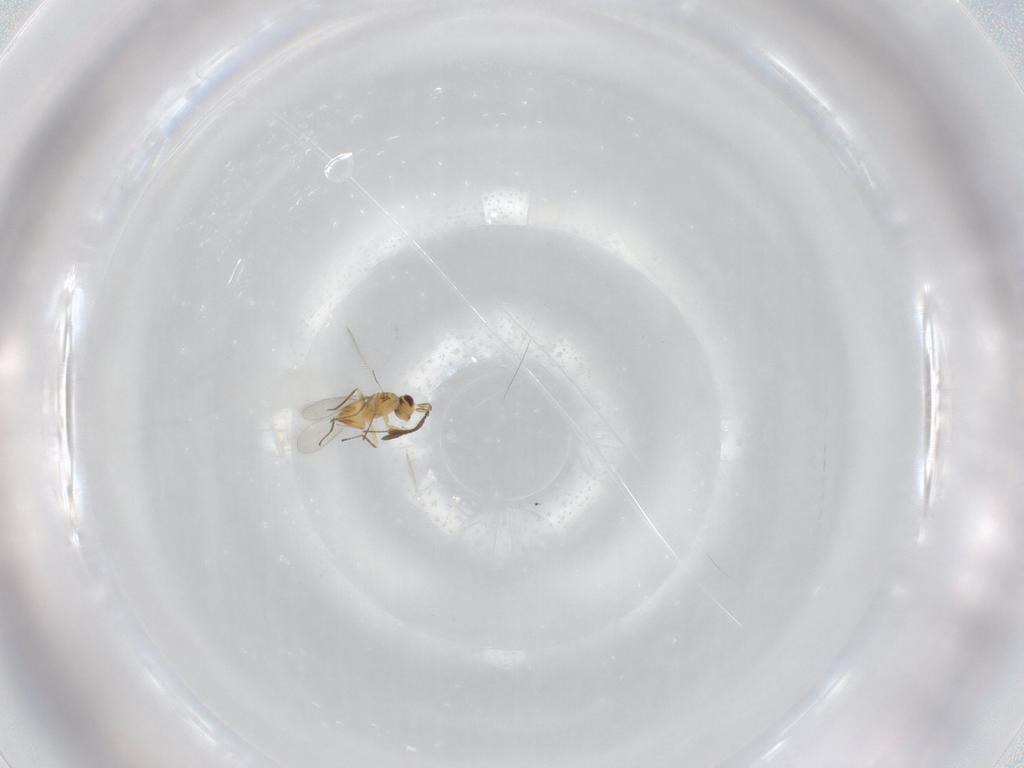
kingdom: Animalia
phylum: Arthropoda
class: Insecta
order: Hymenoptera
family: Mymaridae
